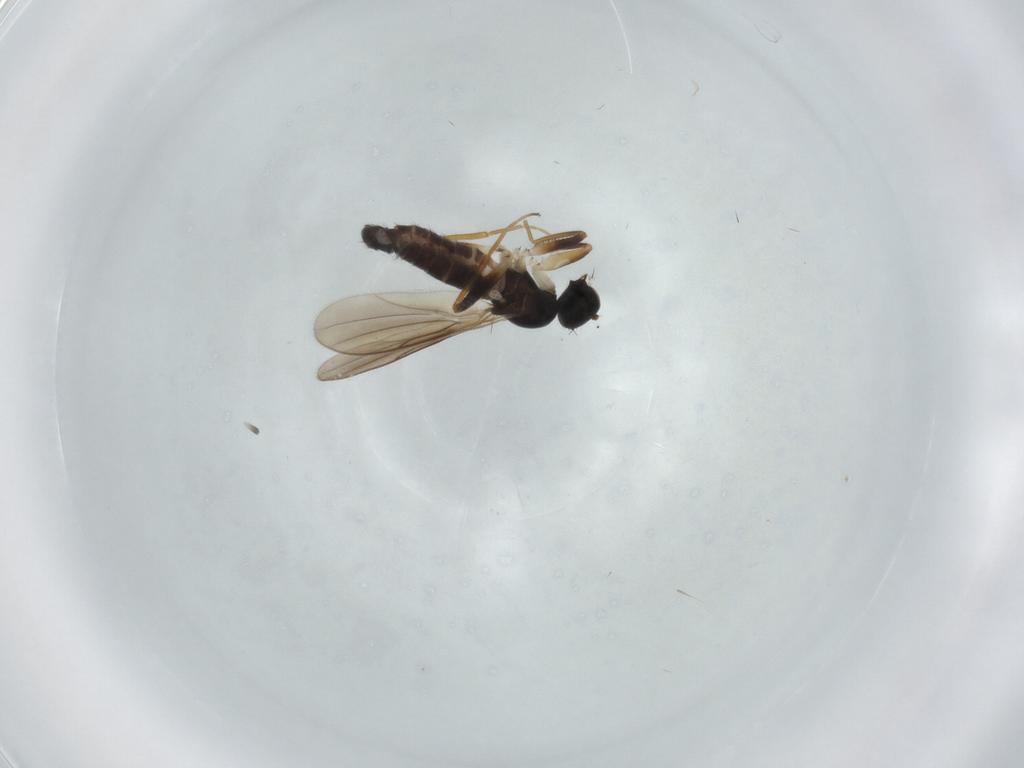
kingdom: Animalia
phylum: Arthropoda
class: Insecta
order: Diptera
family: Hybotidae
